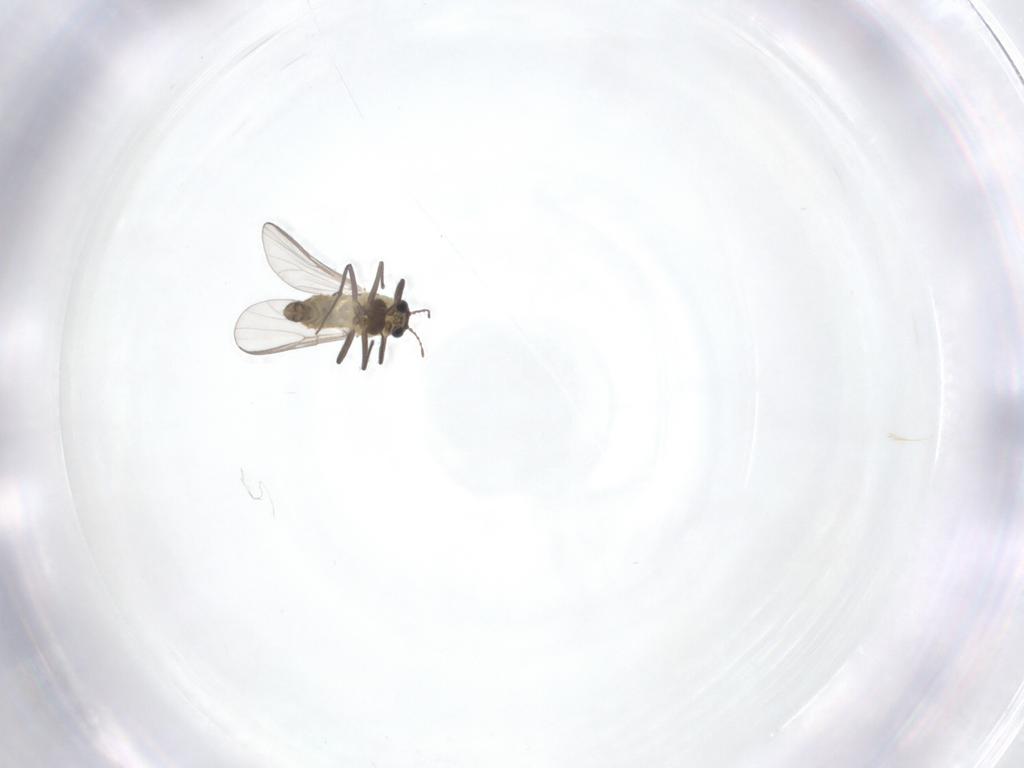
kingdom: Animalia
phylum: Arthropoda
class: Insecta
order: Diptera
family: Chironomidae
